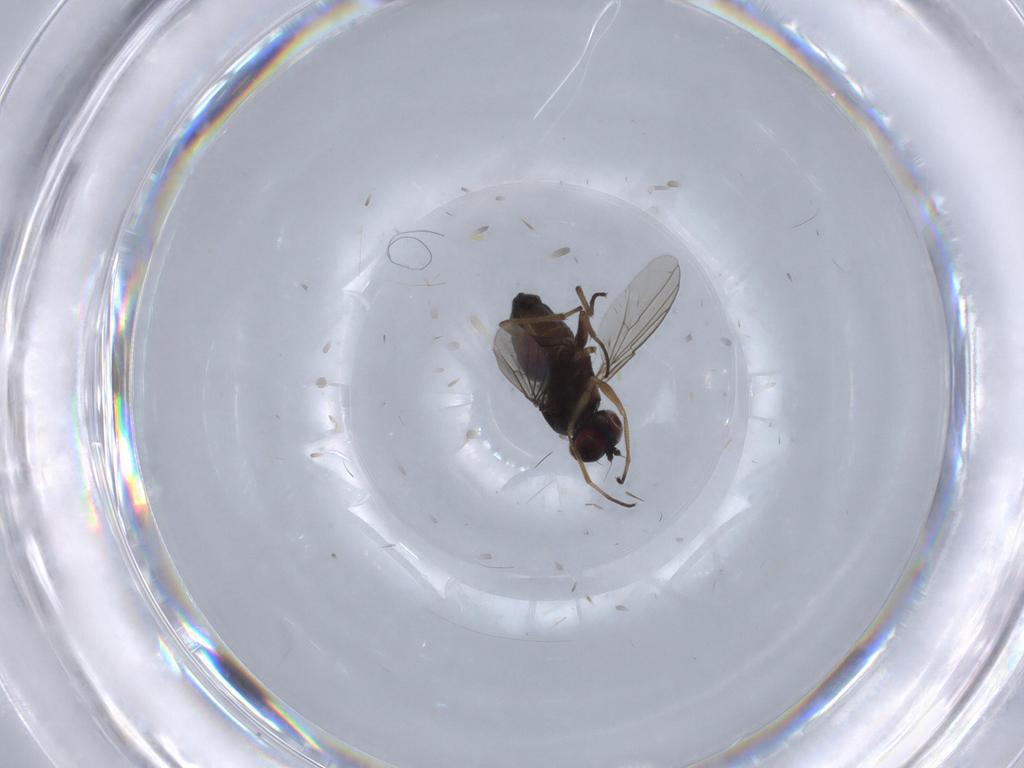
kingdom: Animalia
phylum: Arthropoda
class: Insecta
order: Diptera
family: Dolichopodidae
